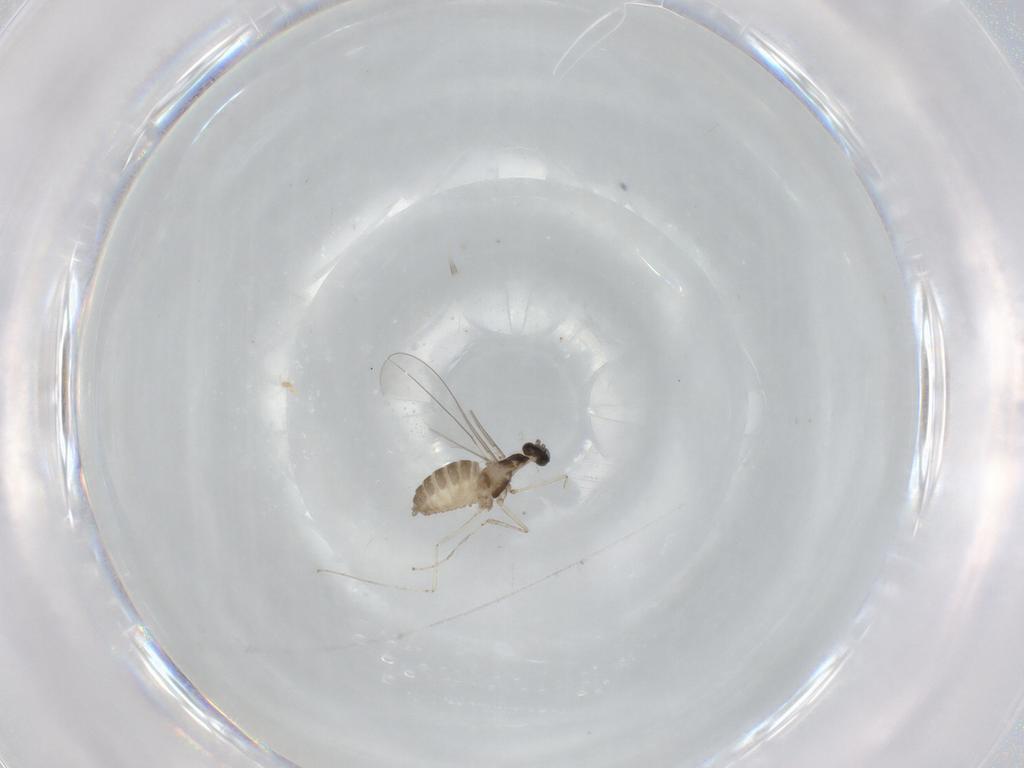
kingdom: Animalia
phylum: Arthropoda
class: Insecta
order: Diptera
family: Cecidomyiidae
